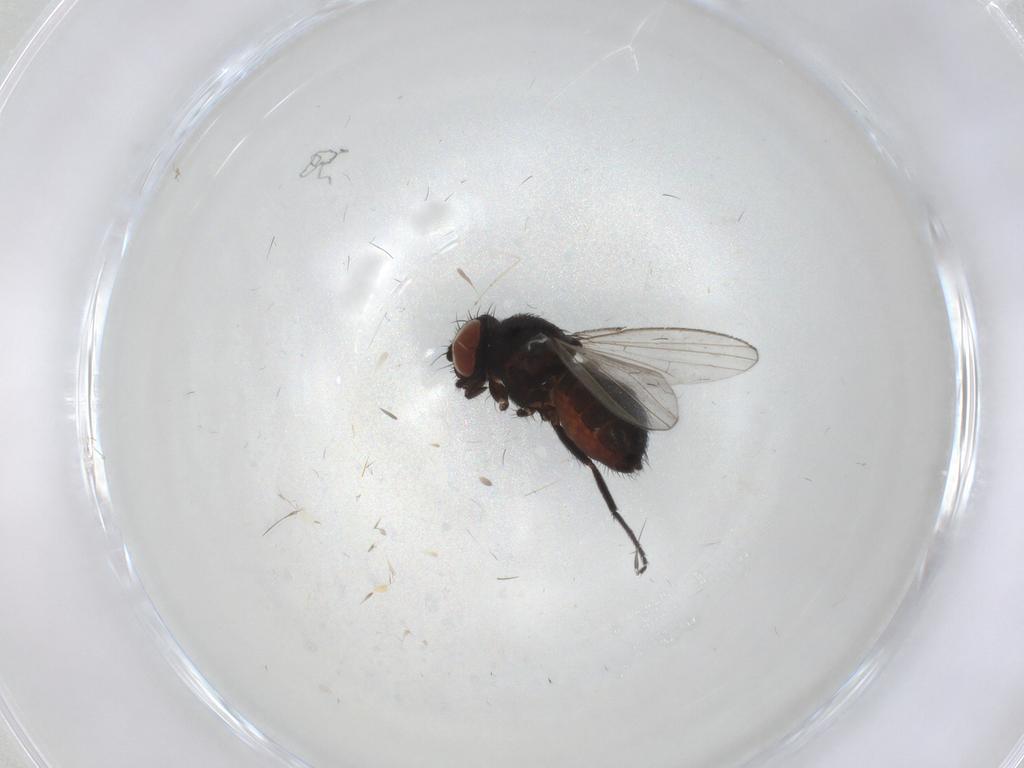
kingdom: Animalia
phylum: Arthropoda
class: Insecta
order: Diptera
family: Milichiidae
